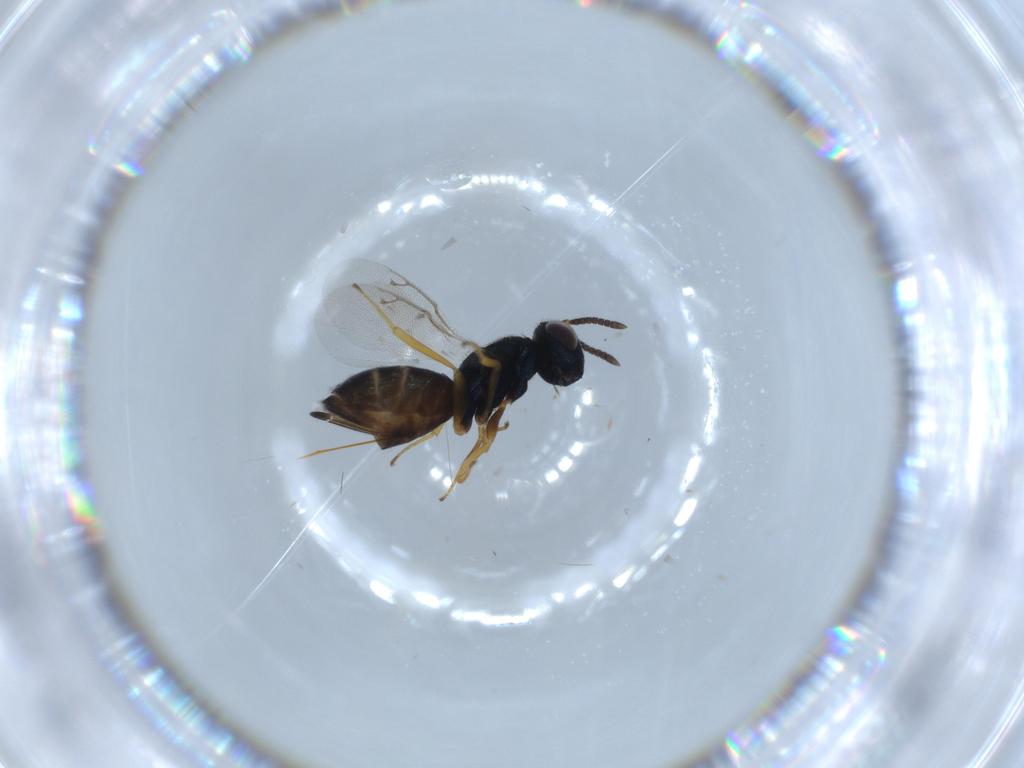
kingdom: Animalia
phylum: Arthropoda
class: Insecta
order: Hymenoptera
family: Pteromalidae
